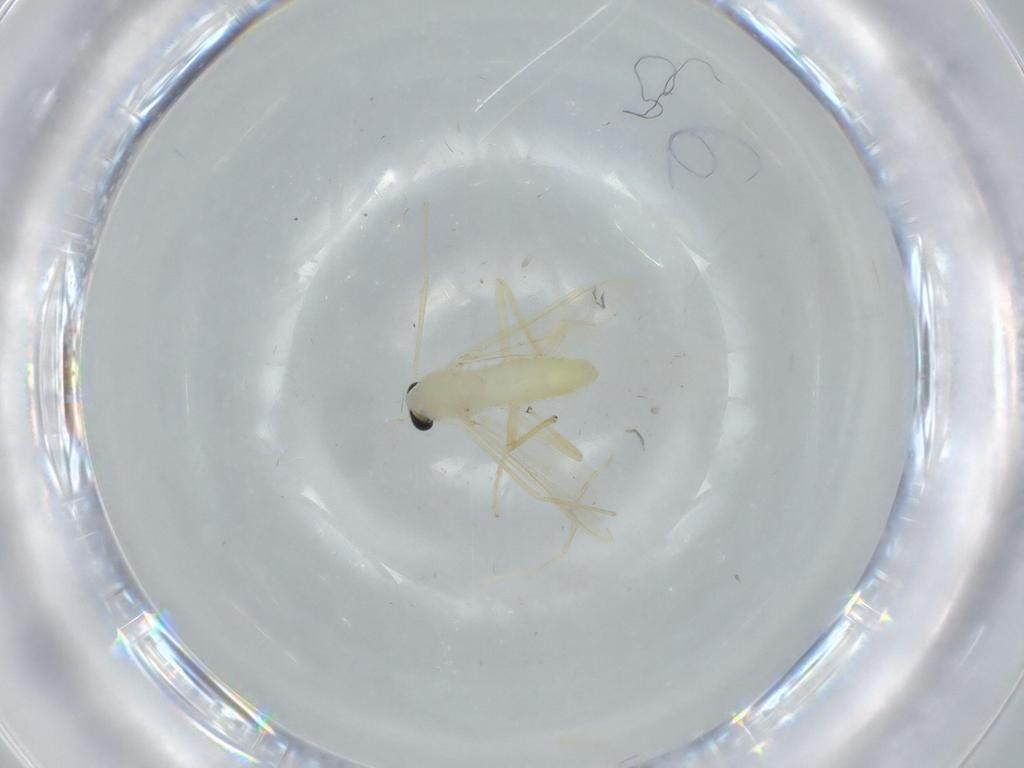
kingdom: Animalia
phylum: Arthropoda
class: Insecta
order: Diptera
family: Chironomidae
